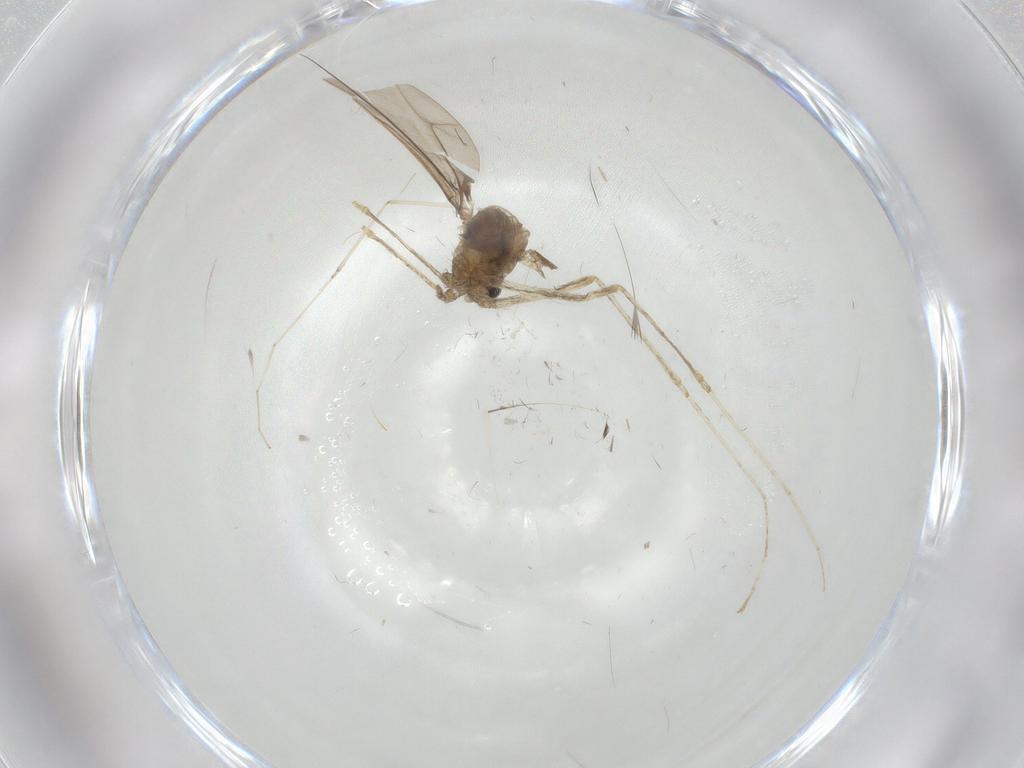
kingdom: Animalia
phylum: Arthropoda
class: Insecta
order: Diptera
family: Cecidomyiidae
